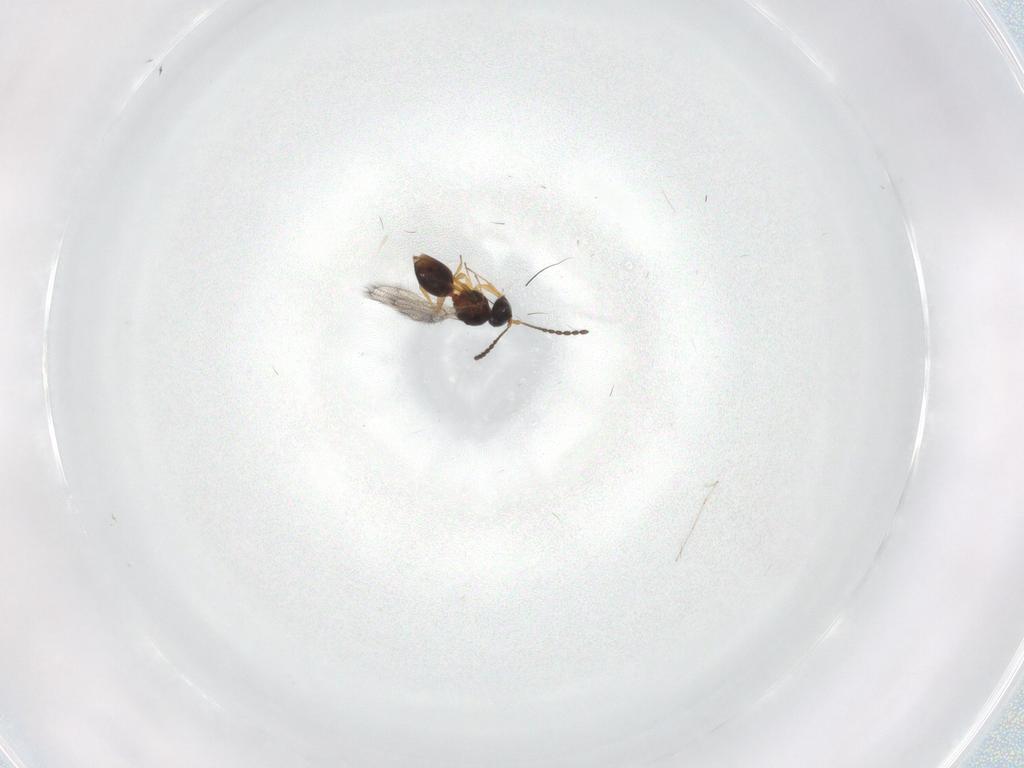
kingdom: Animalia
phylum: Arthropoda
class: Insecta
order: Hymenoptera
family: Figitidae
